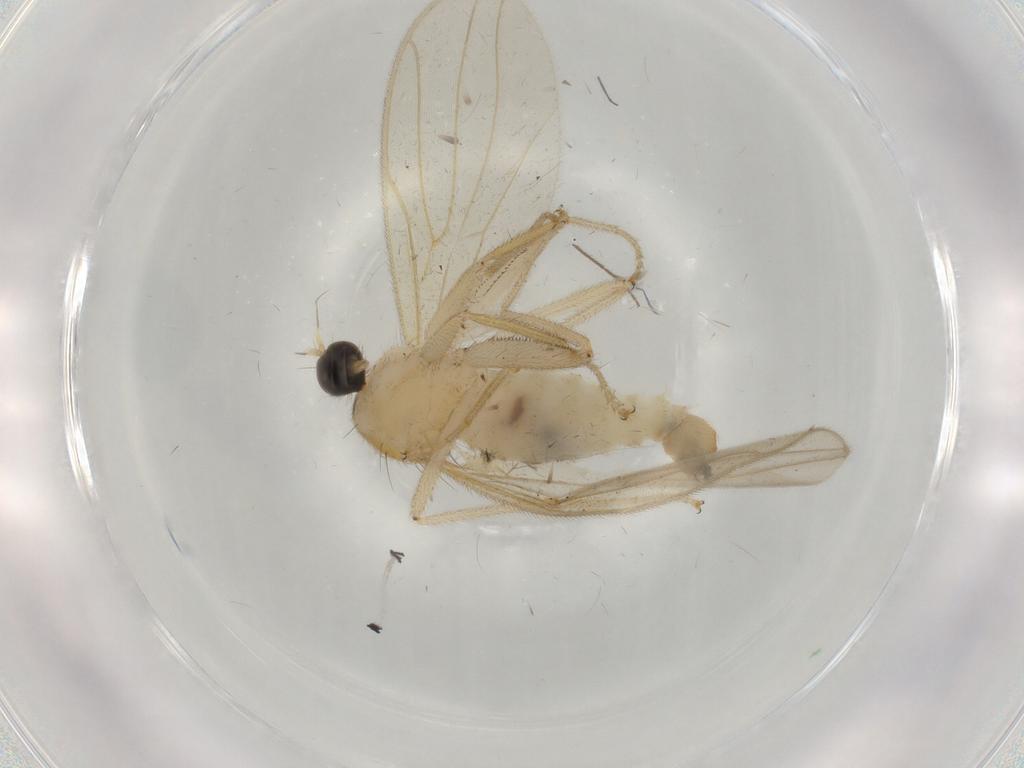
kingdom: Animalia
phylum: Arthropoda
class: Insecta
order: Diptera
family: Hybotidae
